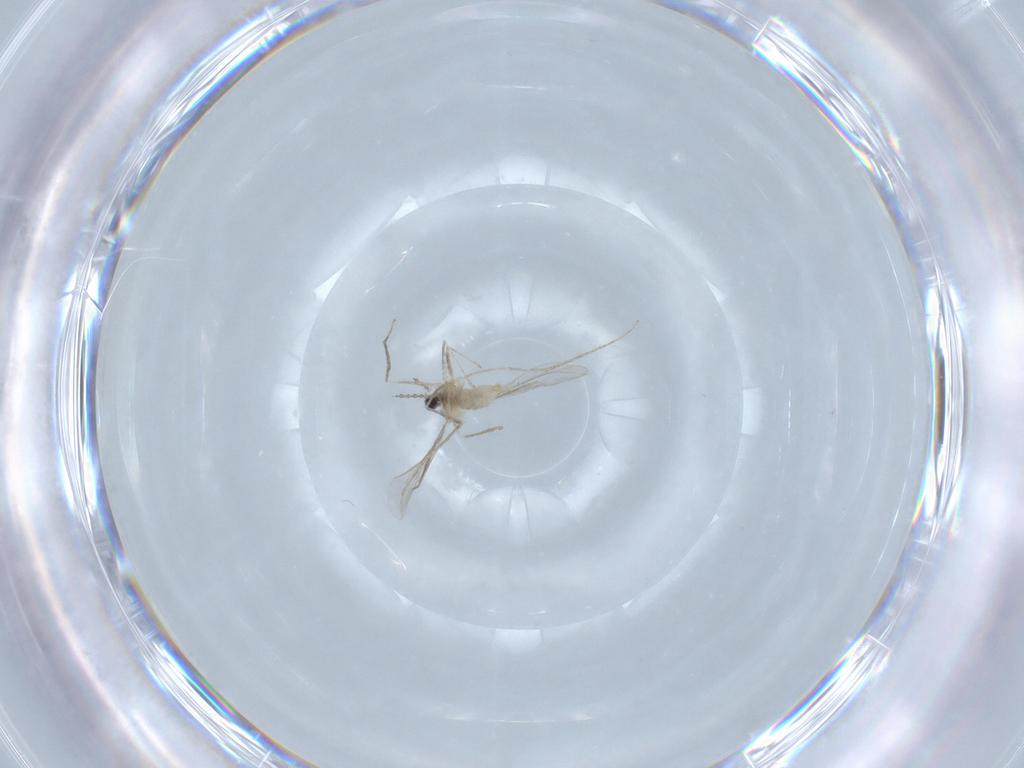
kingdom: Animalia
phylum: Arthropoda
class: Insecta
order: Diptera
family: Cecidomyiidae
